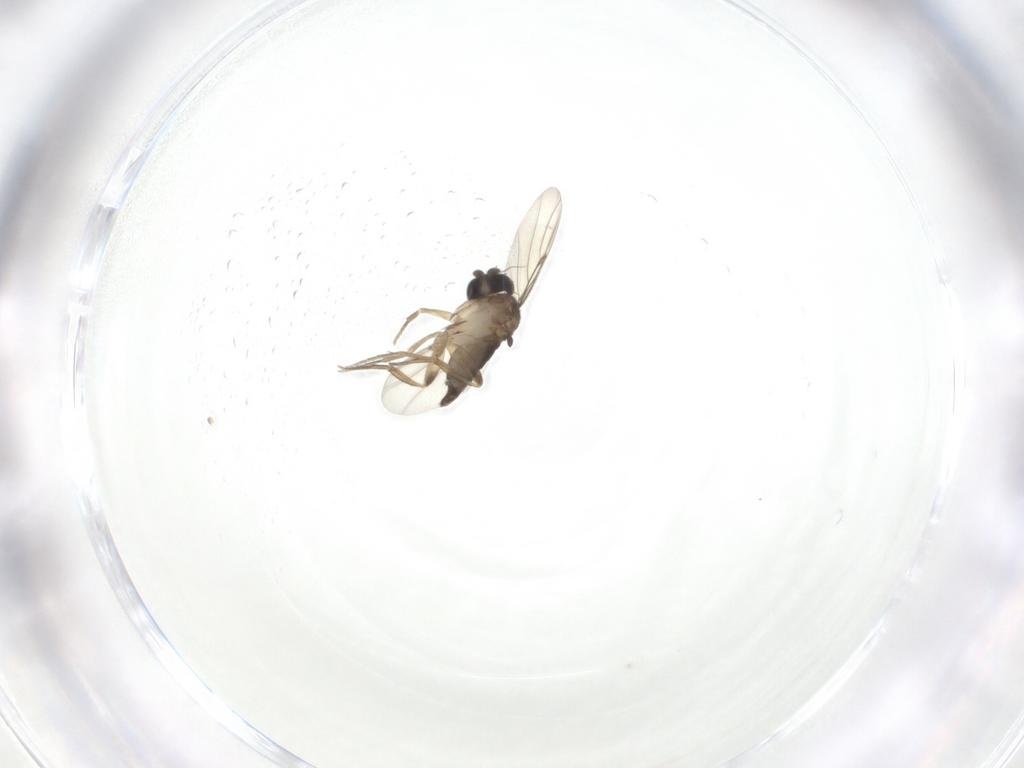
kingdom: Animalia
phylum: Arthropoda
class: Insecta
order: Diptera
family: Phoridae
